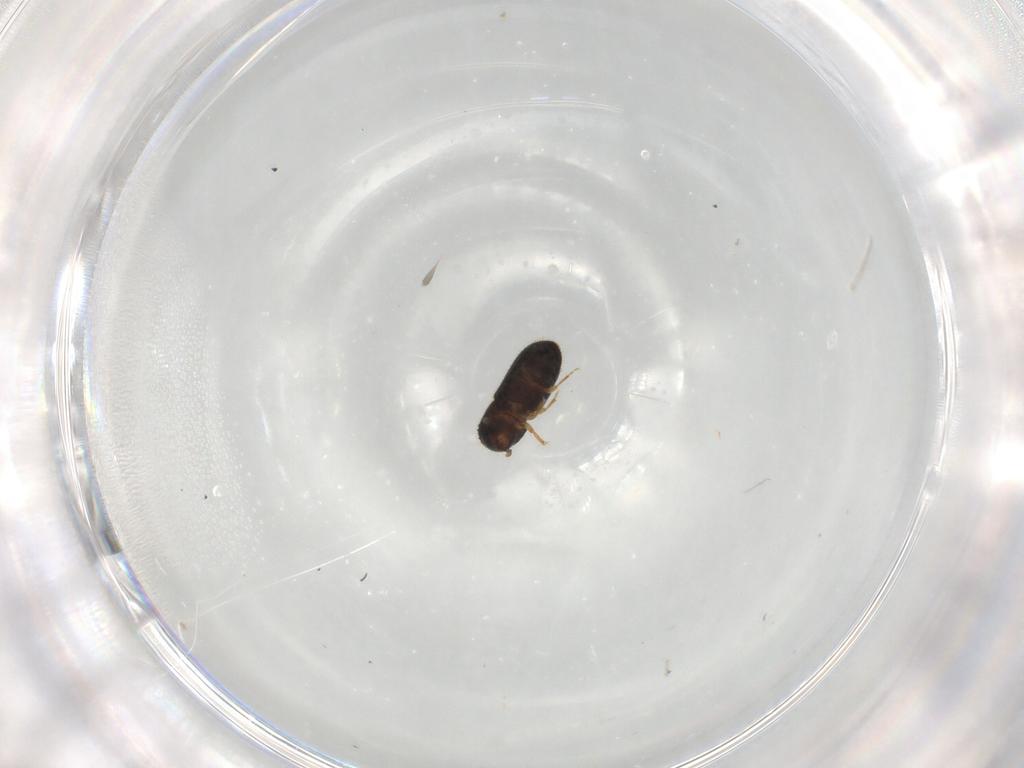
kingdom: Animalia
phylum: Arthropoda
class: Insecta
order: Coleoptera
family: Curculionidae
